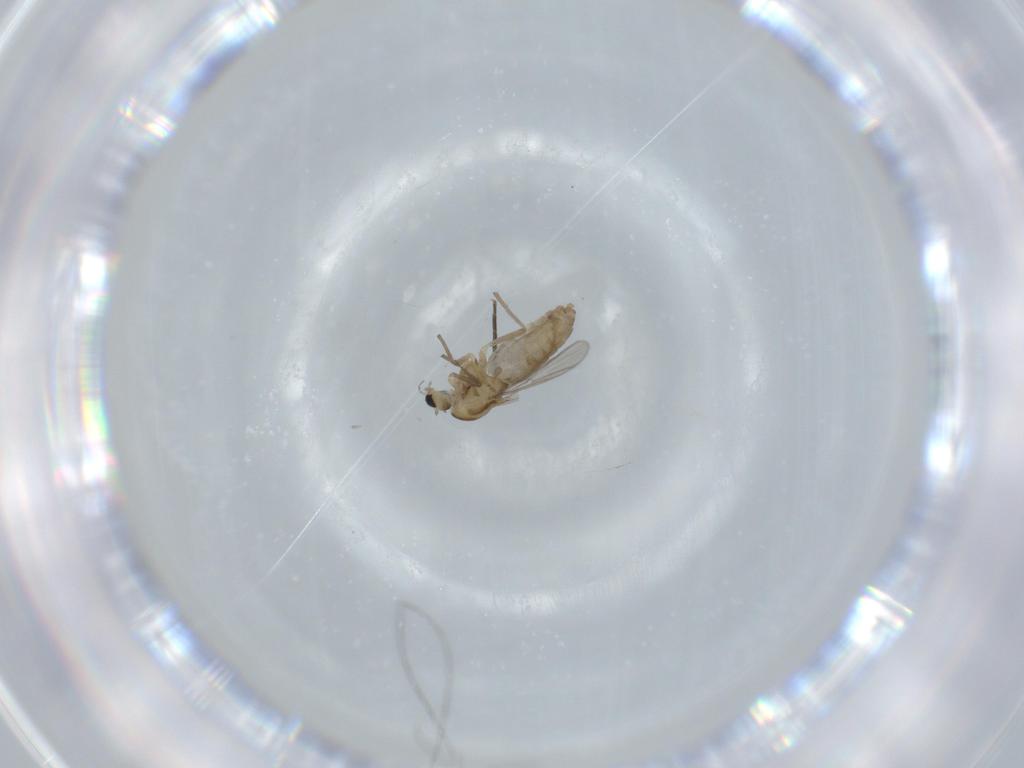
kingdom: Animalia
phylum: Arthropoda
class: Insecta
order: Diptera
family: Chironomidae
